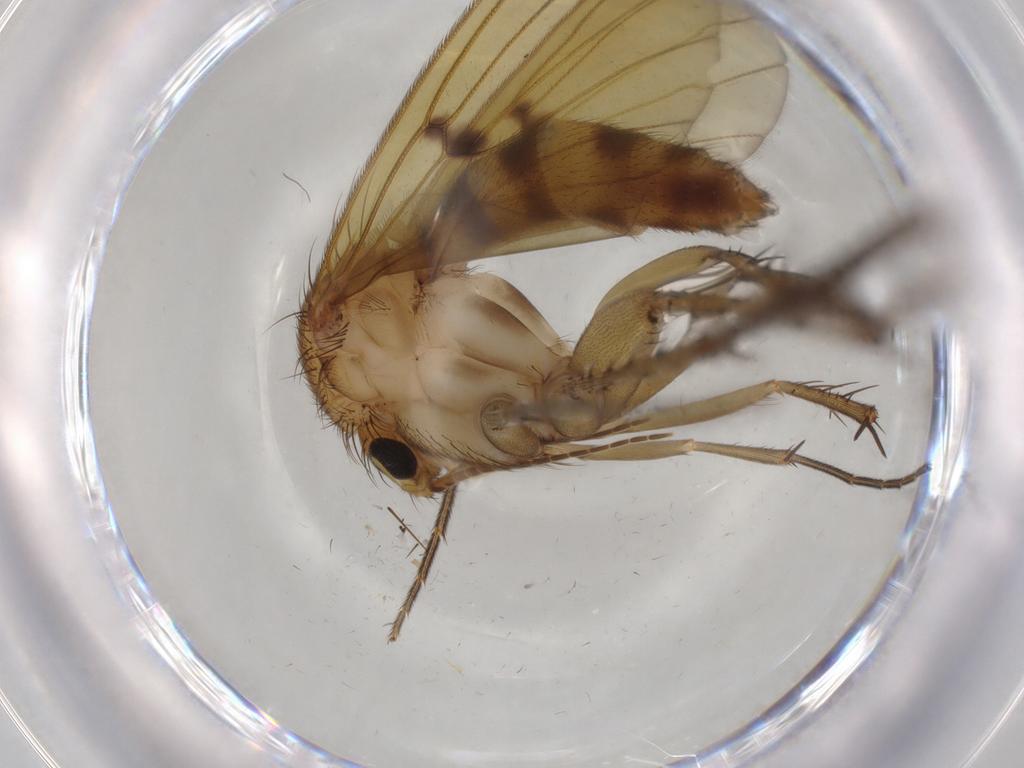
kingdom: Animalia
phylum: Arthropoda
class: Insecta
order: Diptera
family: Mycetophilidae
